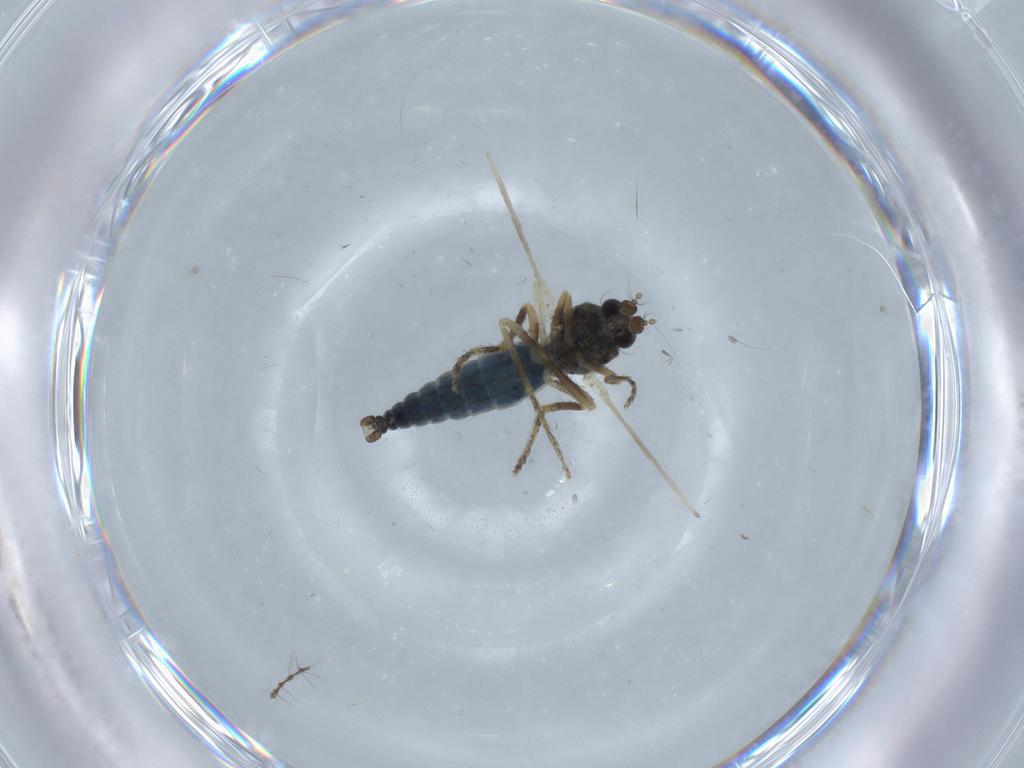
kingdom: Animalia
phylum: Arthropoda
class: Insecta
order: Diptera
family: Ceratopogonidae
